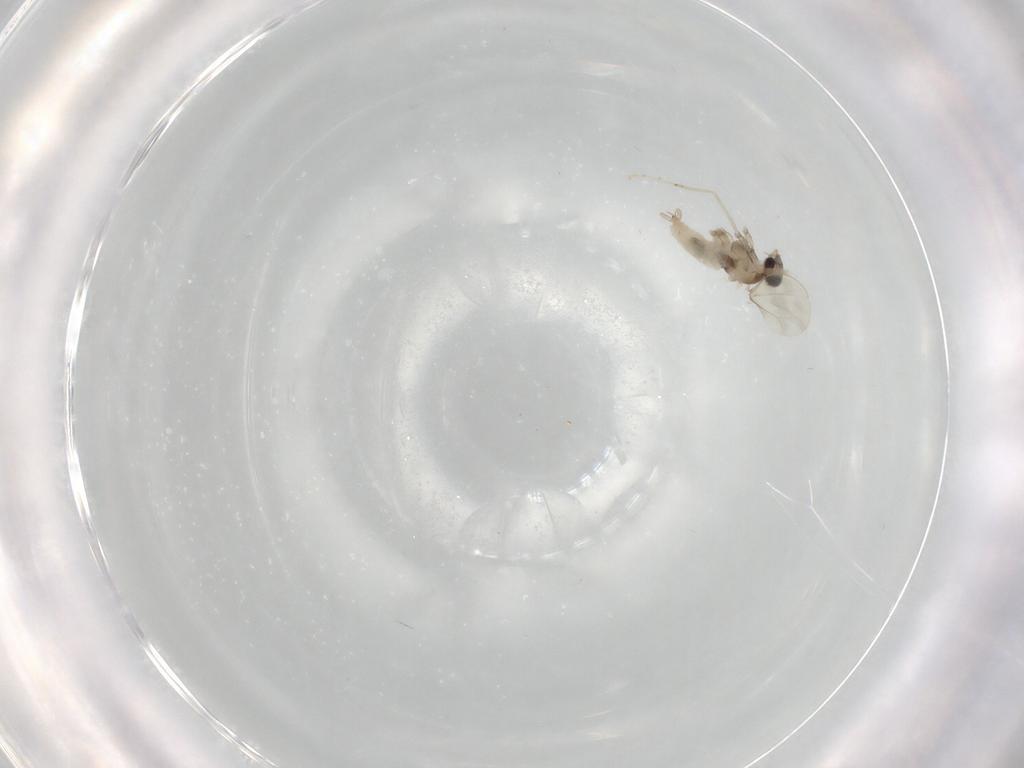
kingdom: Animalia
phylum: Arthropoda
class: Insecta
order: Diptera
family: Cecidomyiidae
